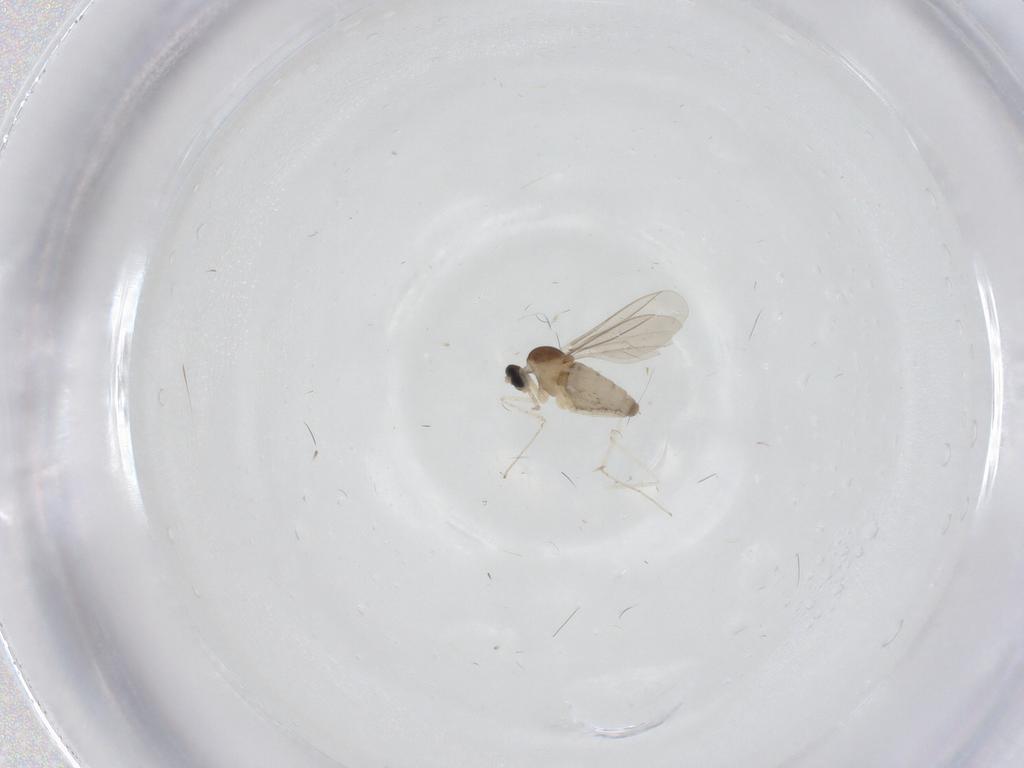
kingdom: Animalia
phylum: Arthropoda
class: Insecta
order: Diptera
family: Cecidomyiidae
